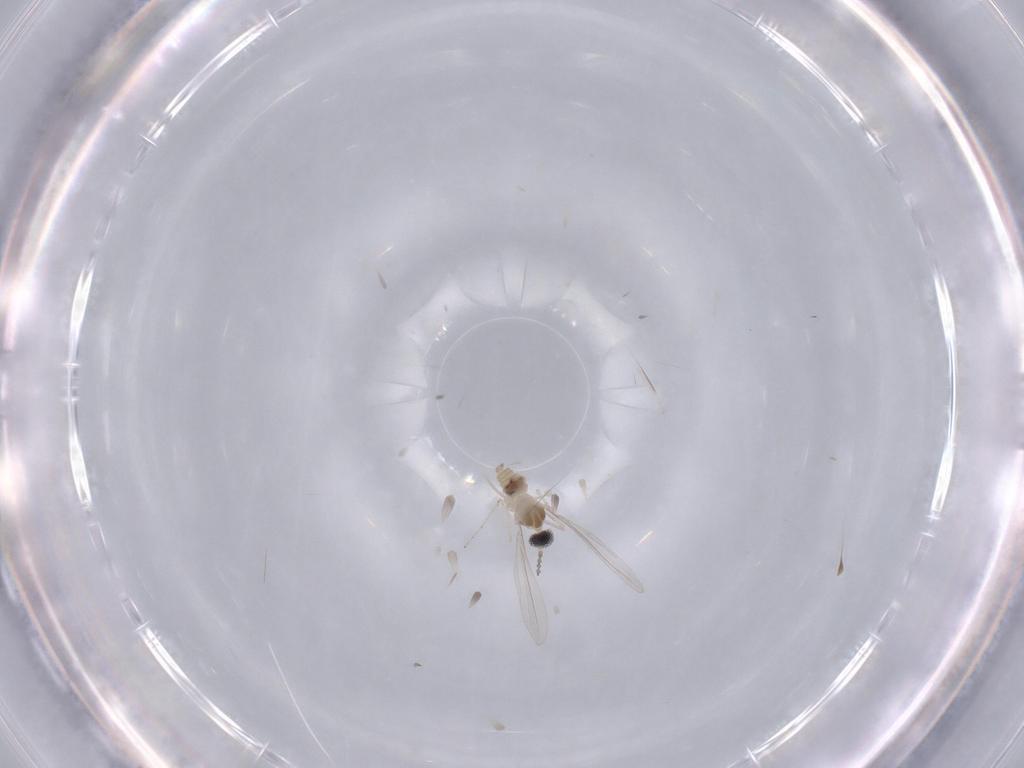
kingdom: Animalia
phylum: Arthropoda
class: Insecta
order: Diptera
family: Cecidomyiidae
